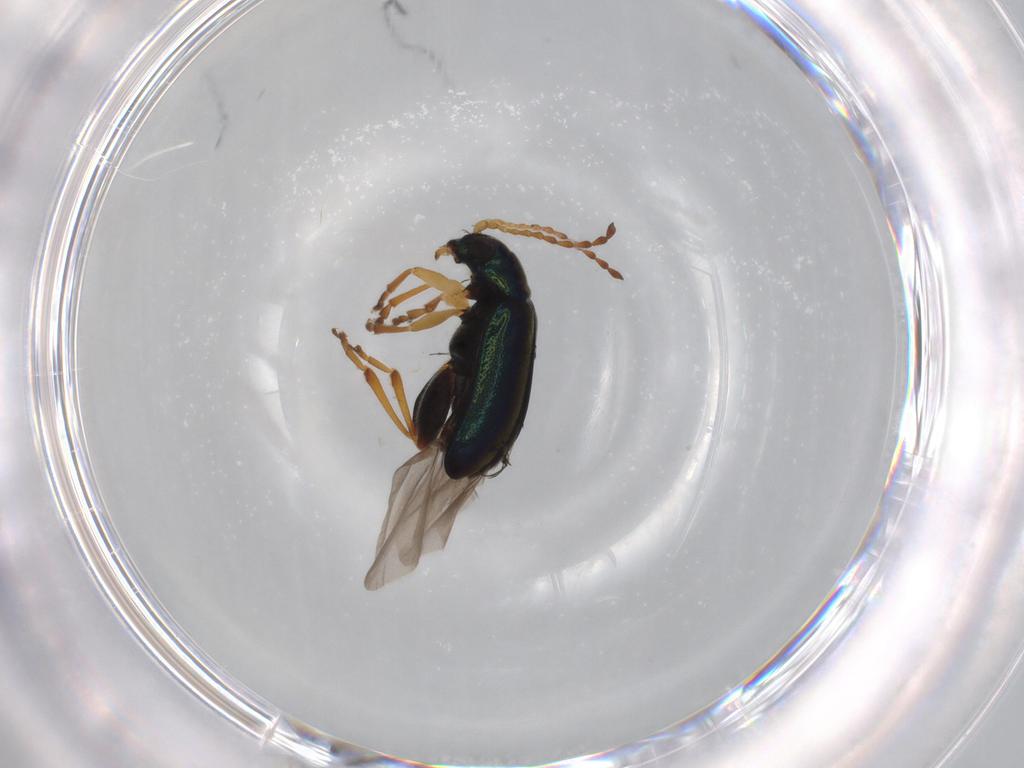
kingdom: Animalia
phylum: Arthropoda
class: Insecta
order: Coleoptera
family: Chrysomelidae
